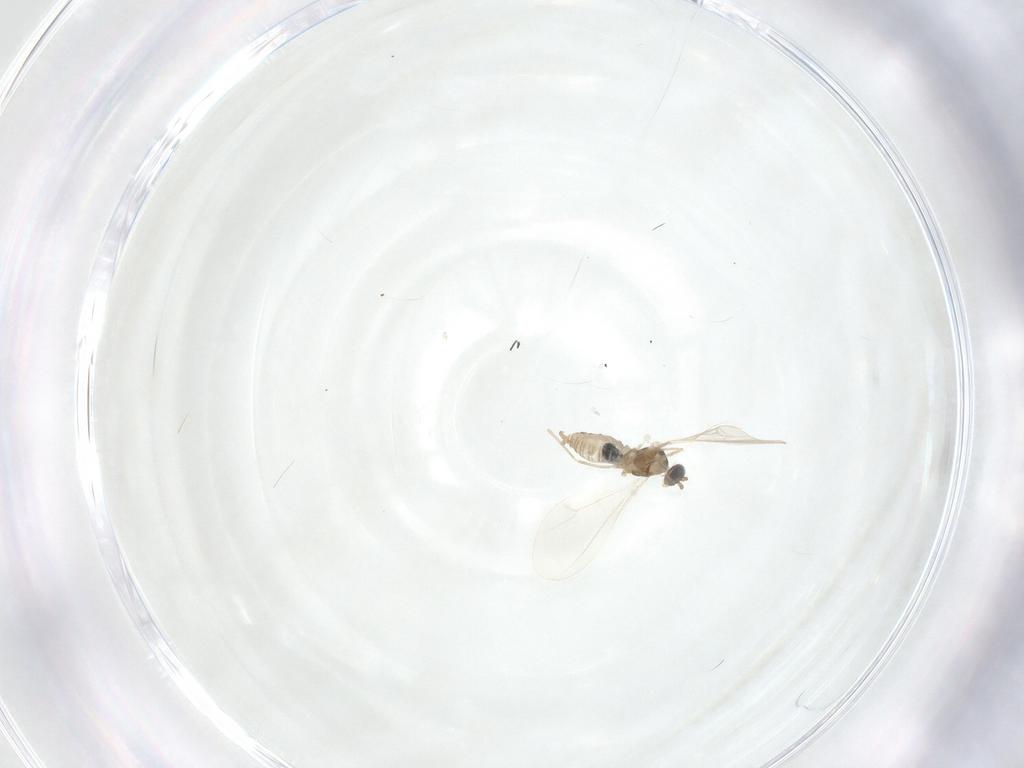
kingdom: Animalia
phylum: Arthropoda
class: Insecta
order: Diptera
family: Cecidomyiidae
